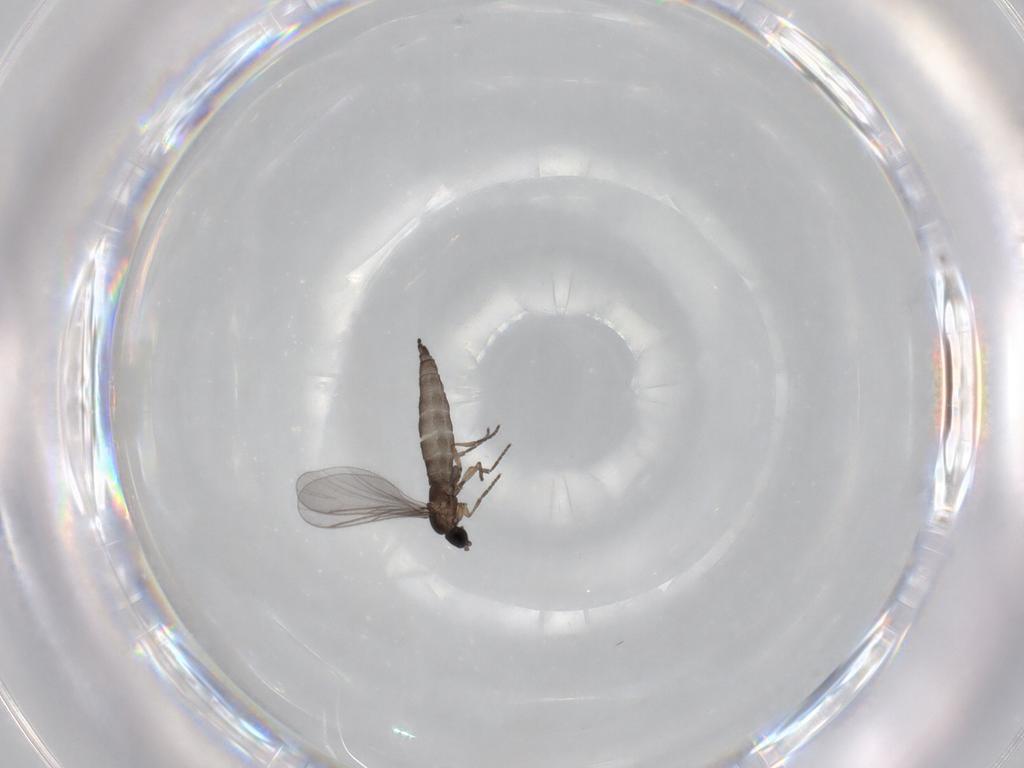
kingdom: Animalia
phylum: Arthropoda
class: Insecta
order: Diptera
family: Sciaridae
